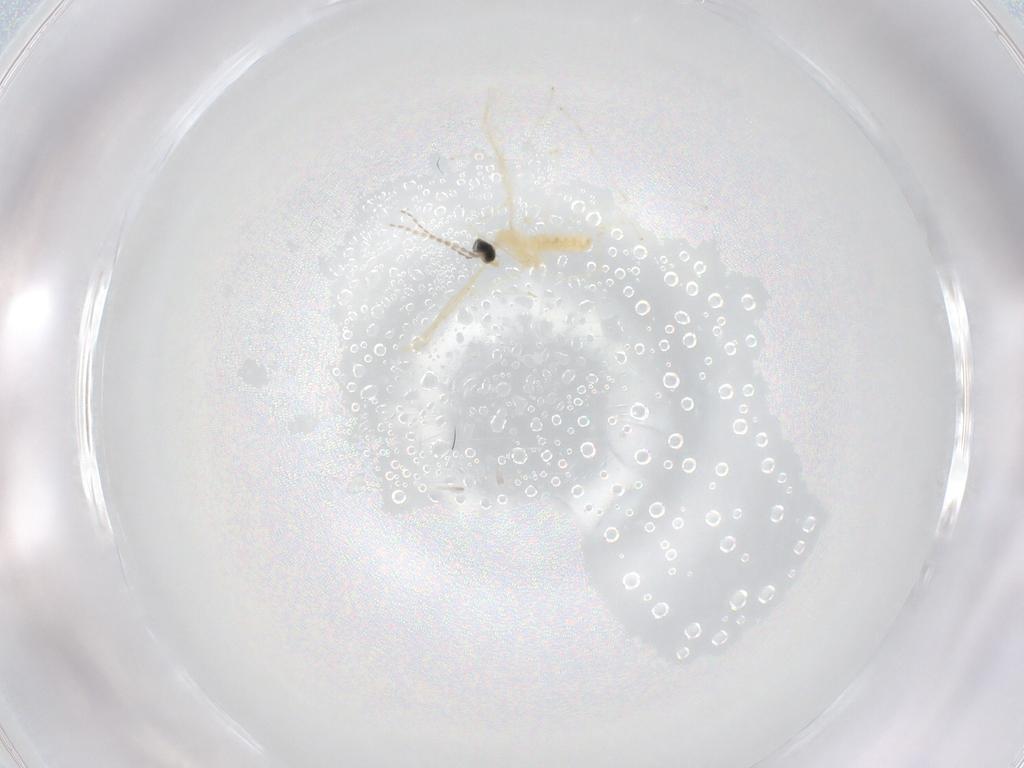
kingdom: Animalia
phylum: Arthropoda
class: Insecta
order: Diptera
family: Cecidomyiidae
